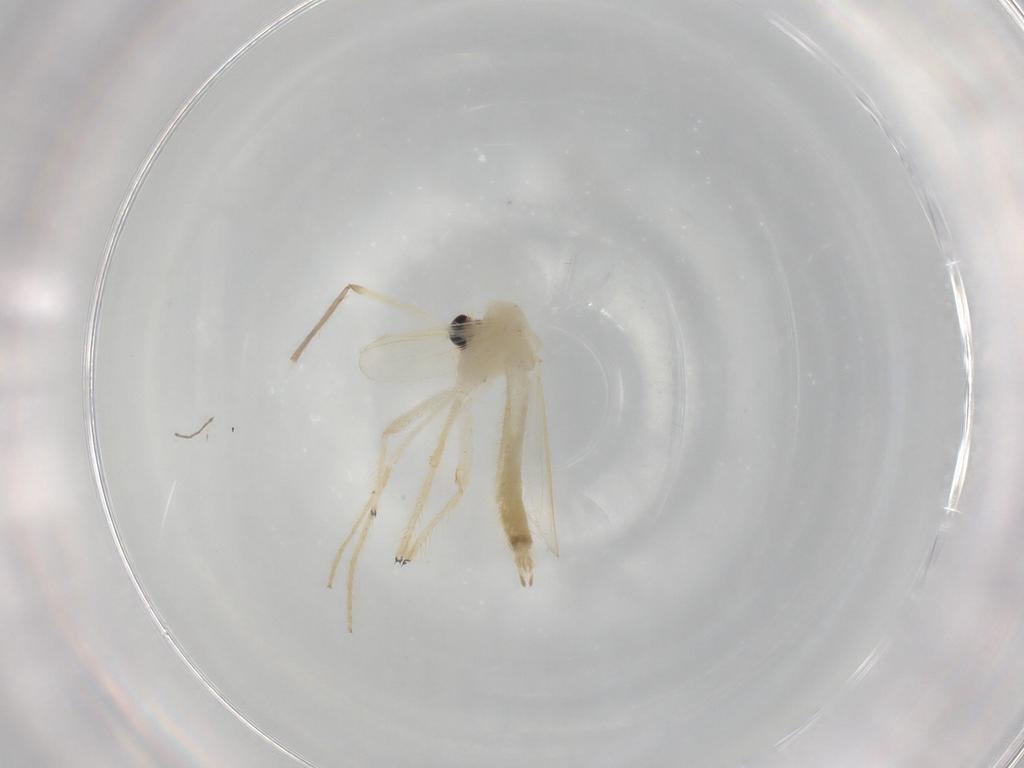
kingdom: Animalia
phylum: Arthropoda
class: Insecta
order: Diptera
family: Chironomidae
